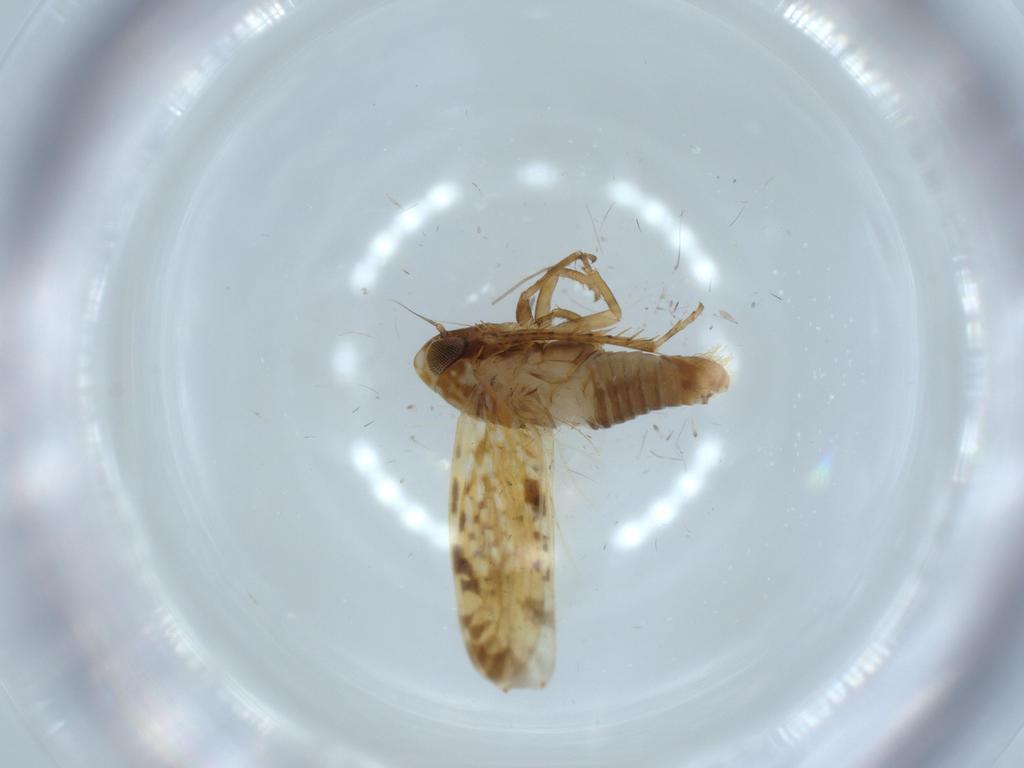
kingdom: Animalia
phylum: Arthropoda
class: Insecta
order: Hemiptera
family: Cicadellidae
